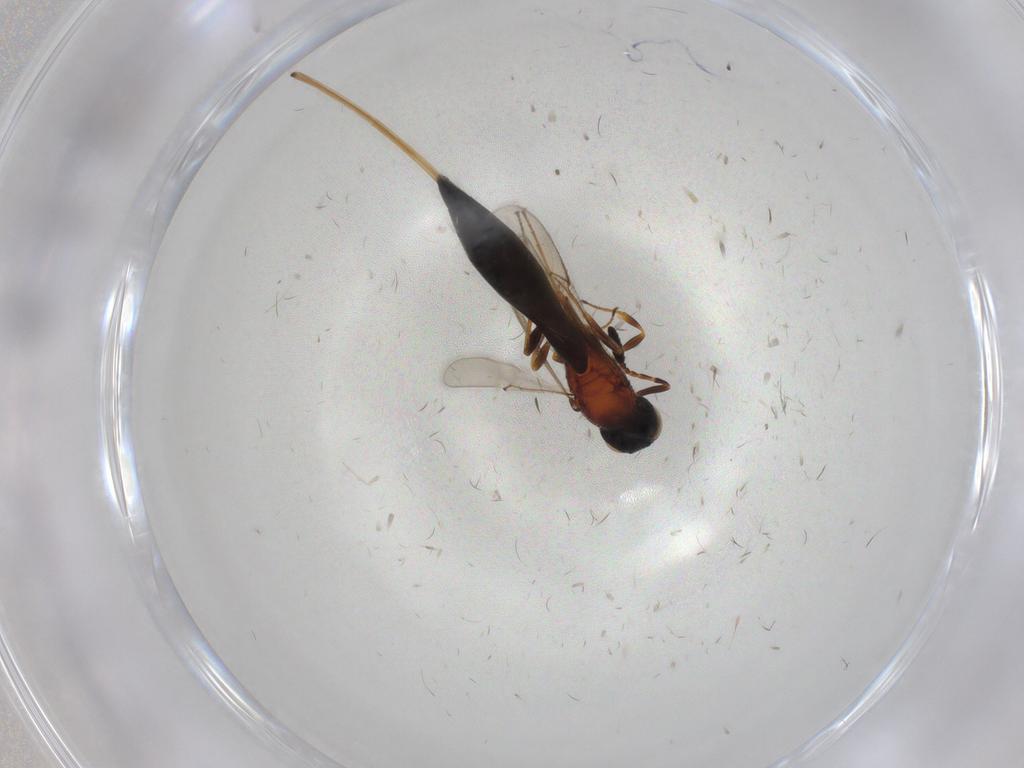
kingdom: Animalia
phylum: Arthropoda
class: Insecta
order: Hymenoptera
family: Scelionidae
